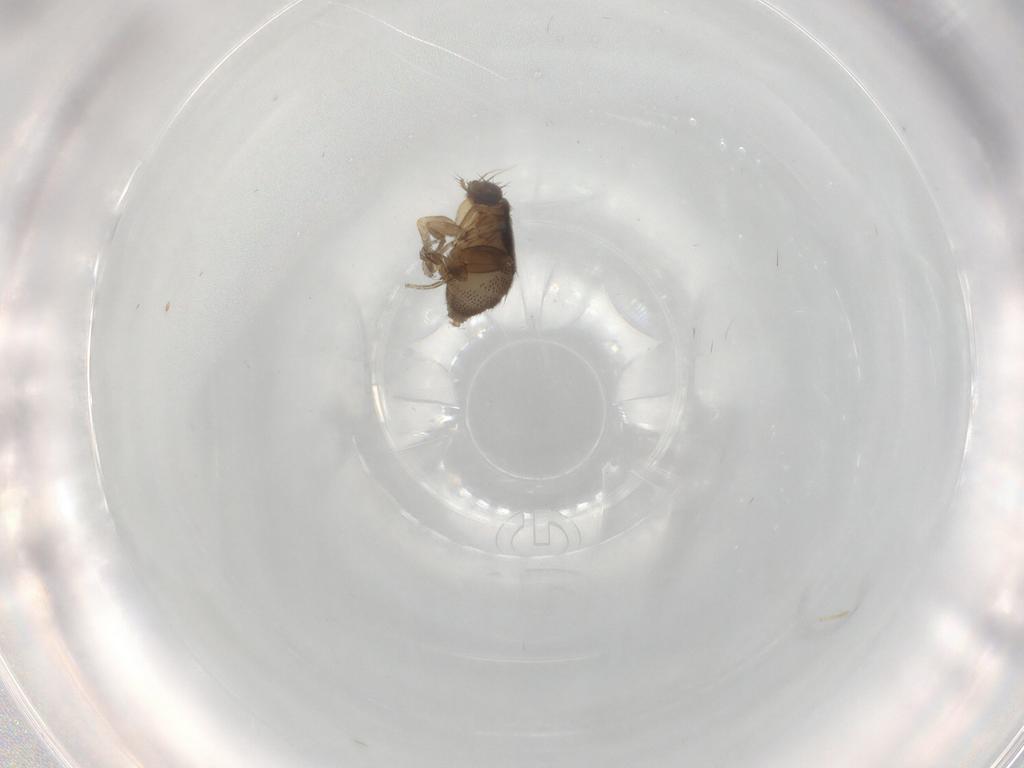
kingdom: Animalia
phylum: Arthropoda
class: Insecta
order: Diptera
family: Phoridae
